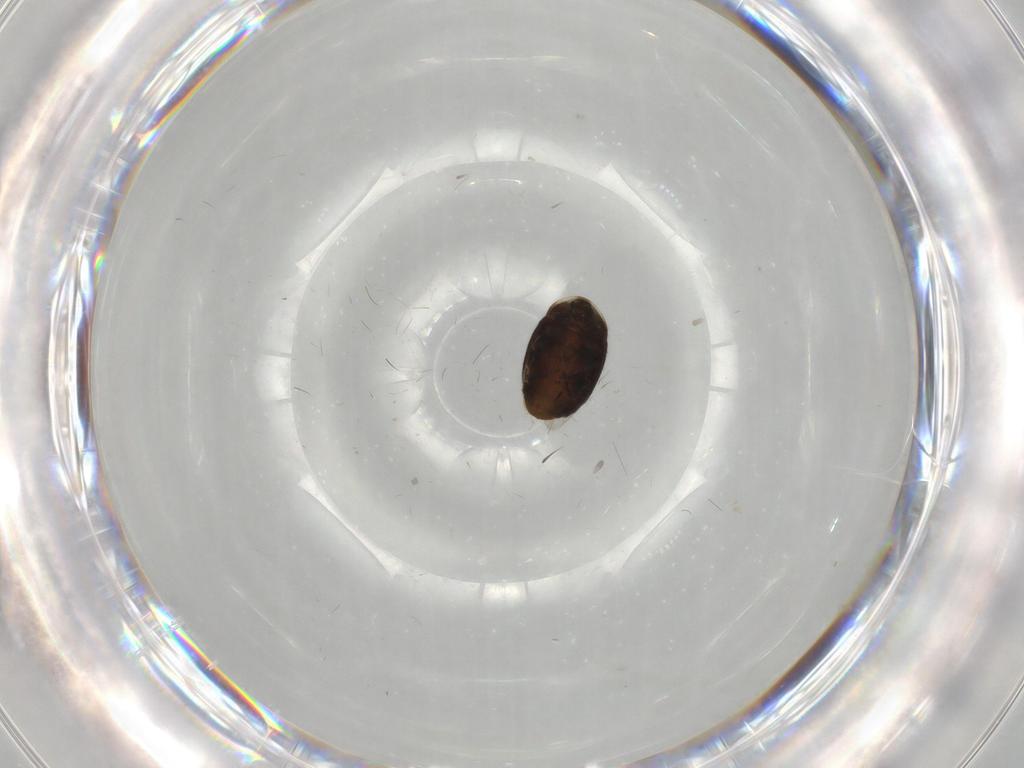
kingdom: Animalia
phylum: Arthropoda
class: Insecta
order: Coleoptera
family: Corylophidae
